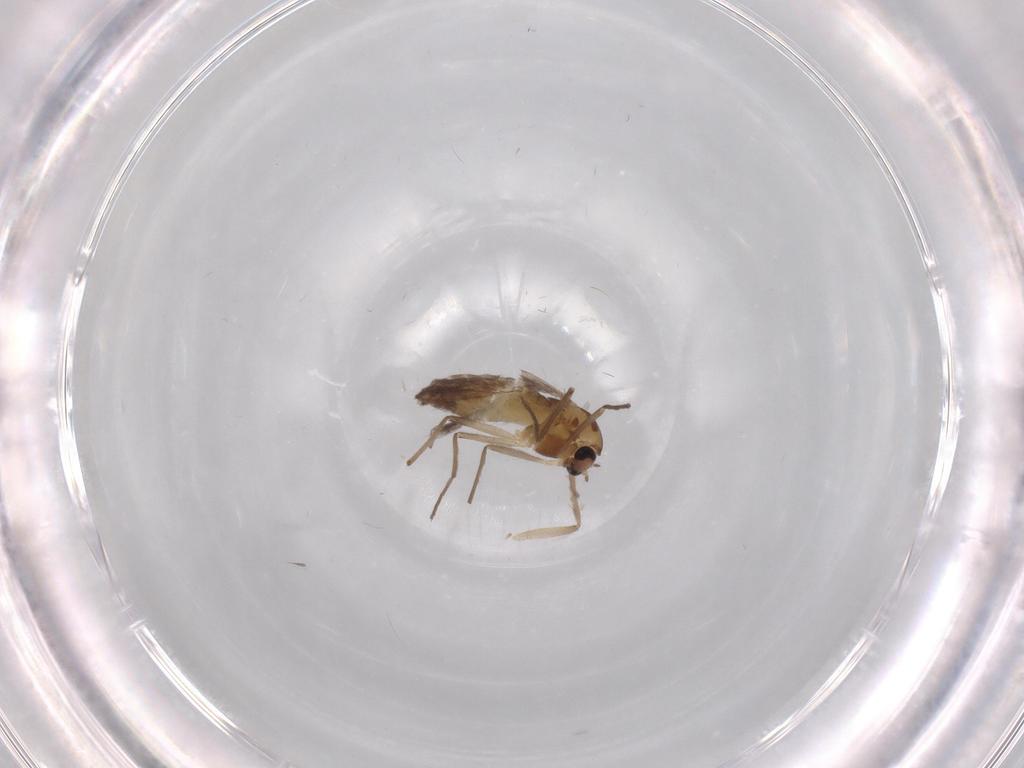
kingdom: Animalia
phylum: Arthropoda
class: Insecta
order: Diptera
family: Chironomidae
